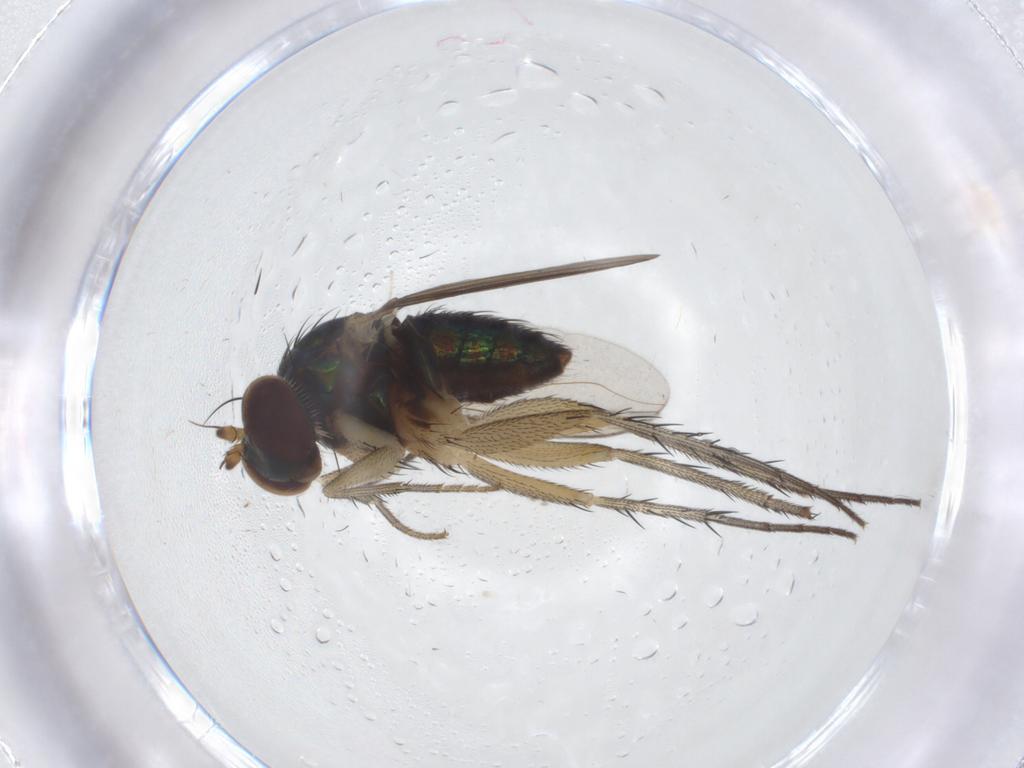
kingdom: Animalia
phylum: Arthropoda
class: Insecta
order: Diptera
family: Dolichopodidae
